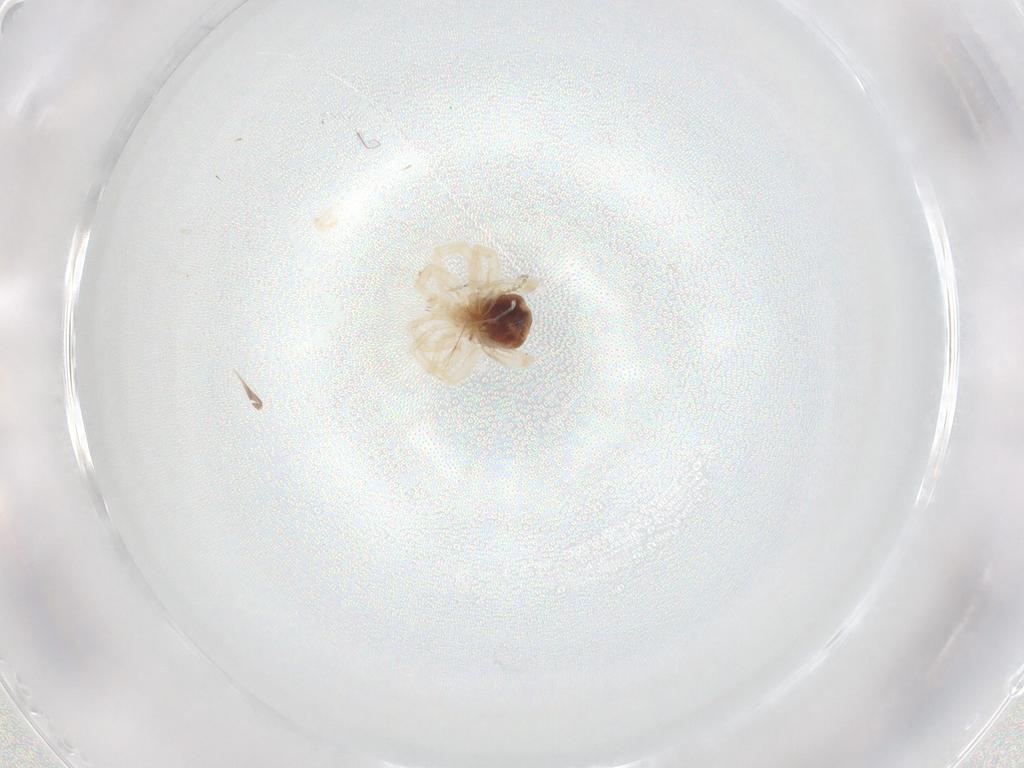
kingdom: Animalia
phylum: Arthropoda
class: Arachnida
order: Trombidiformes
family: Anystidae
